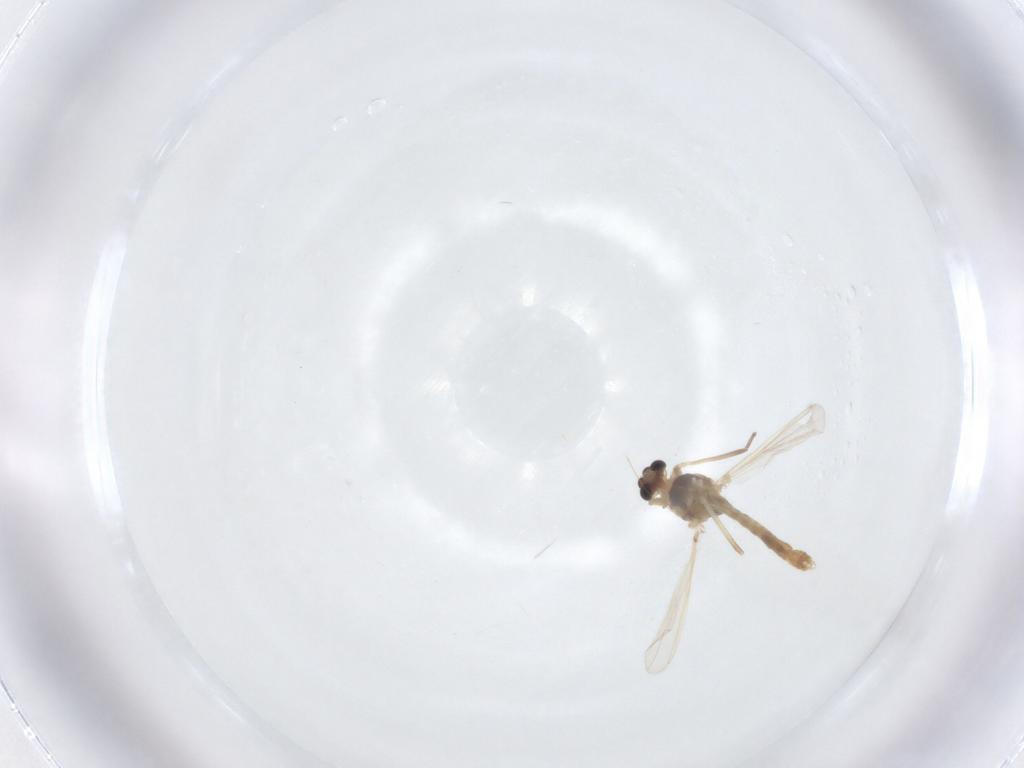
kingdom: Animalia
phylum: Arthropoda
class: Insecta
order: Diptera
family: Chironomidae
